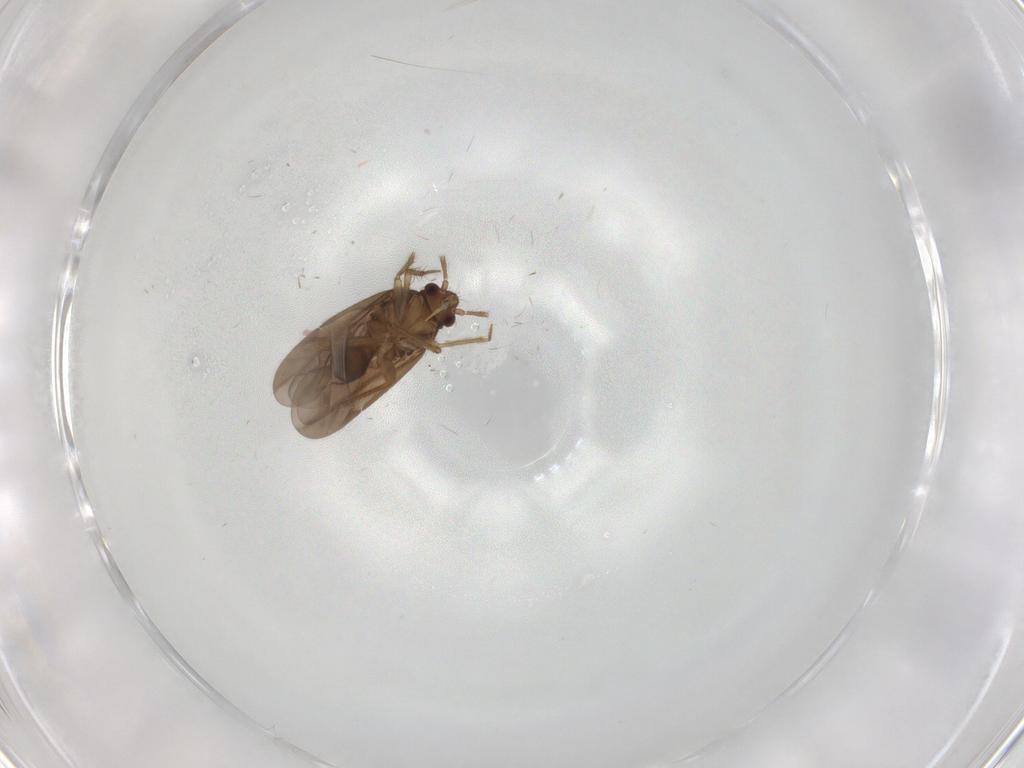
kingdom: Animalia
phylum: Arthropoda
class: Insecta
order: Hemiptera
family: Ceratocombidae
